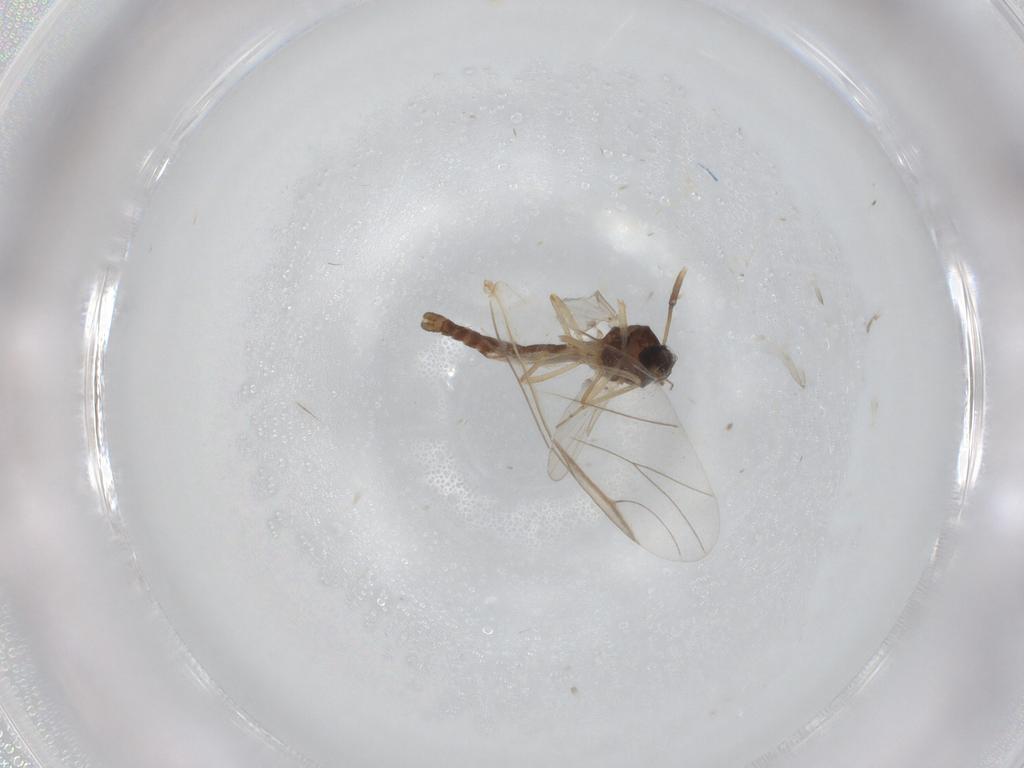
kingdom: Animalia
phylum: Arthropoda
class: Insecta
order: Diptera
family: Ceratopogonidae
